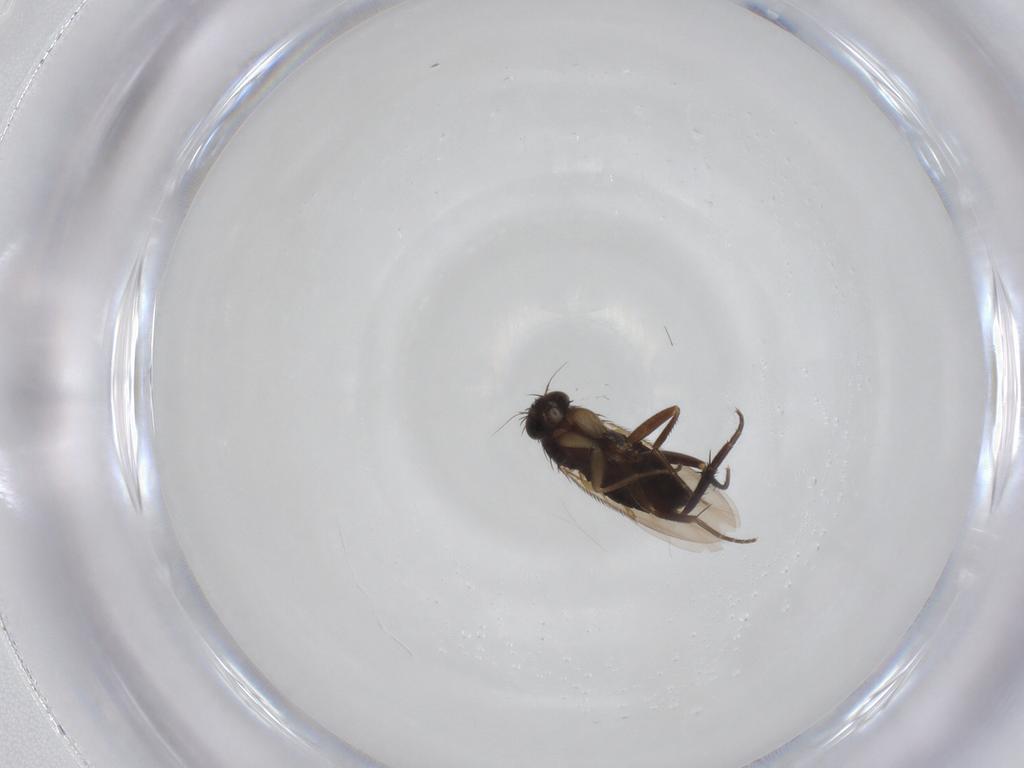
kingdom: Animalia
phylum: Arthropoda
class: Insecta
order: Diptera
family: Phoridae
